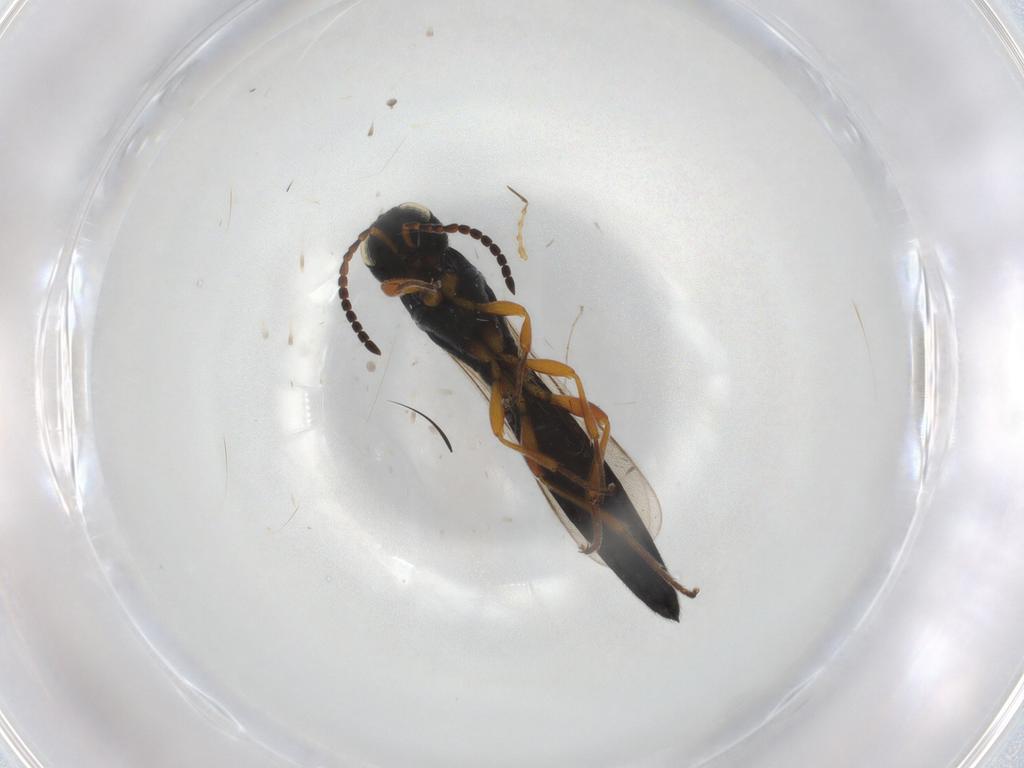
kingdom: Animalia
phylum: Arthropoda
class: Insecta
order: Hymenoptera
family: Scelionidae
